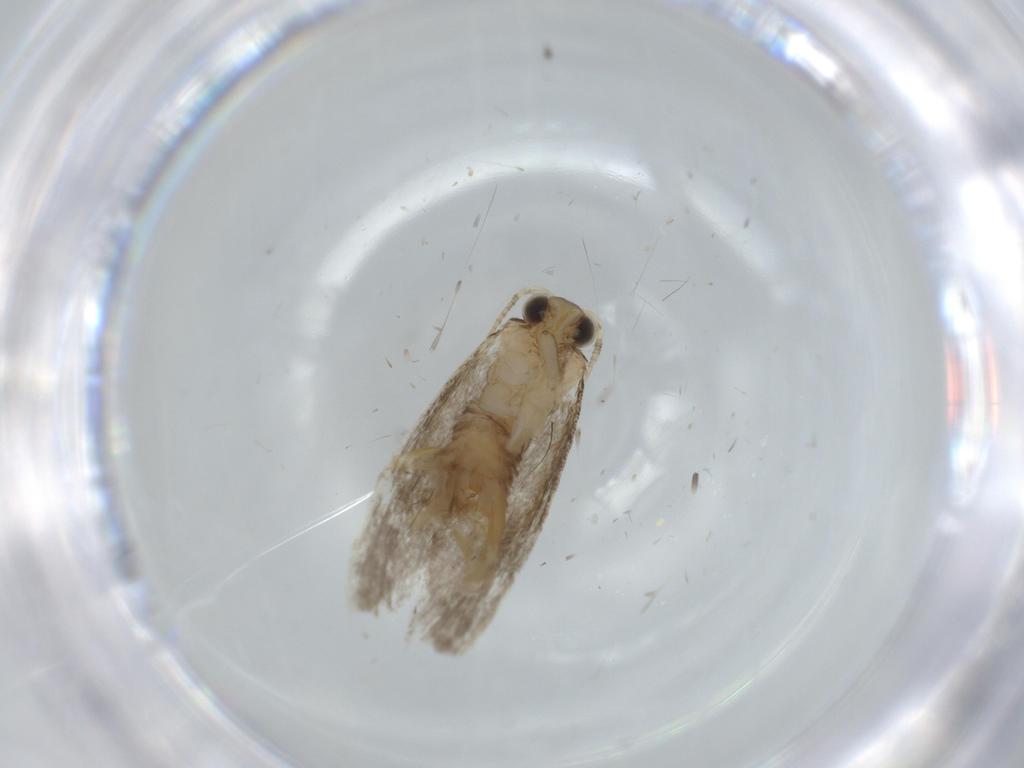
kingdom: Animalia
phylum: Arthropoda
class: Insecta
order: Lepidoptera
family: Tineidae
